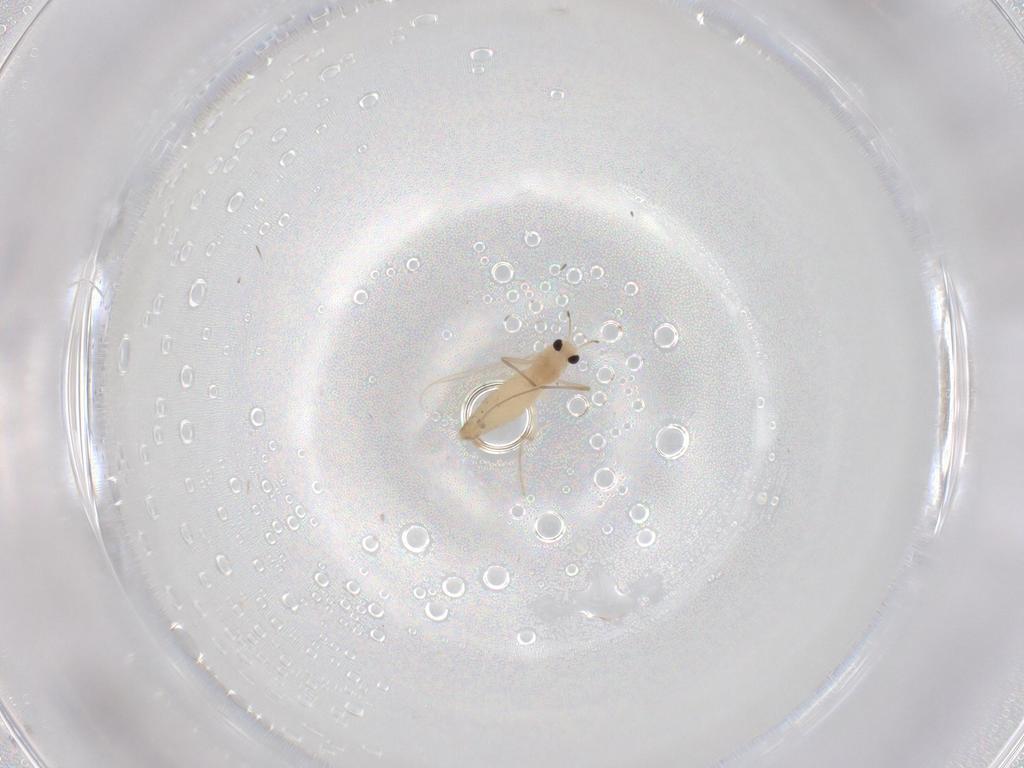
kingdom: Animalia
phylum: Arthropoda
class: Insecta
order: Diptera
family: Chironomidae
